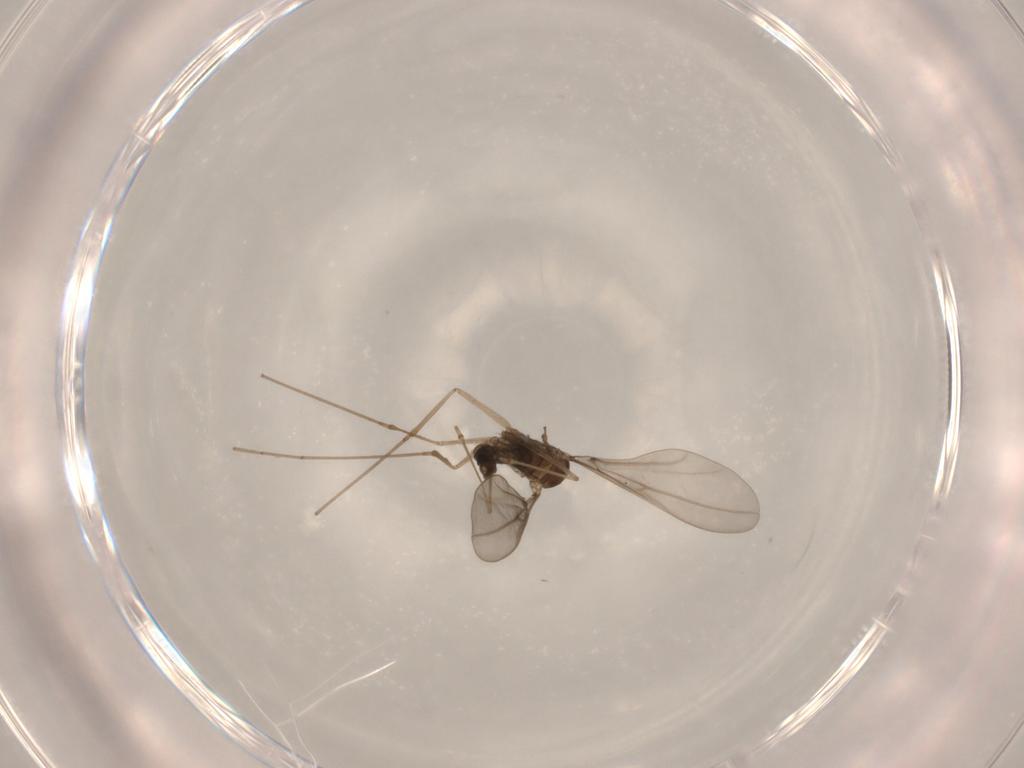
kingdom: Animalia
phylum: Arthropoda
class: Insecta
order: Diptera
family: Cecidomyiidae
